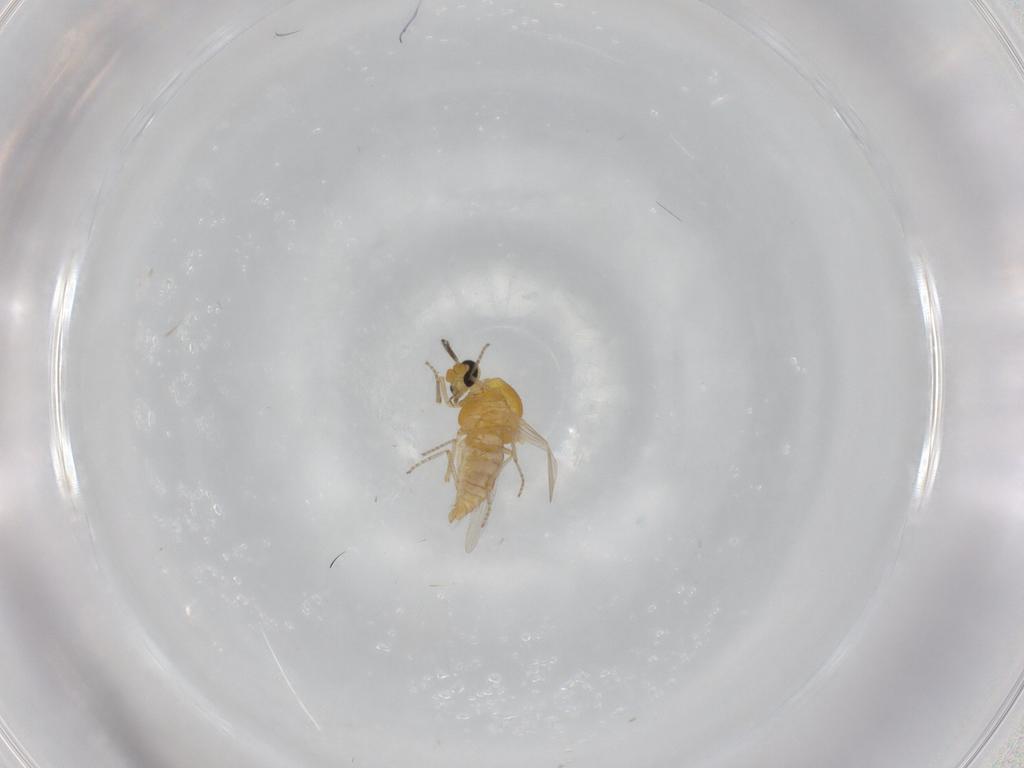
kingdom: Animalia
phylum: Arthropoda
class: Insecta
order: Diptera
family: Ceratopogonidae
